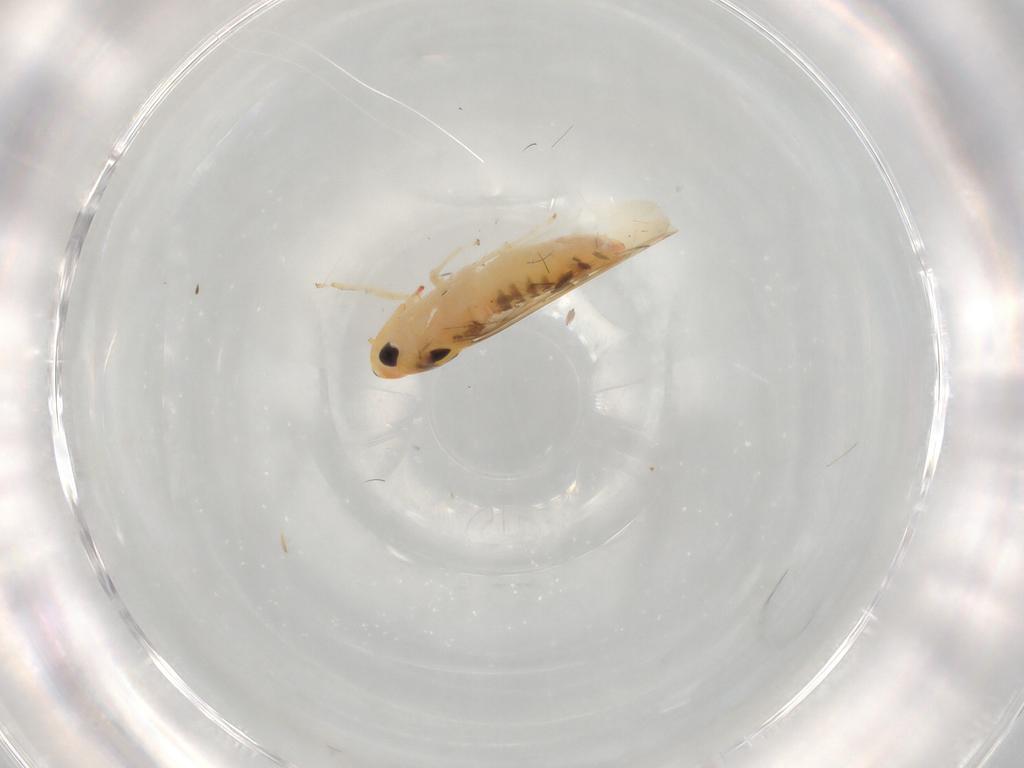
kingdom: Animalia
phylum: Arthropoda
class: Insecta
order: Hemiptera
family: Cicadellidae
